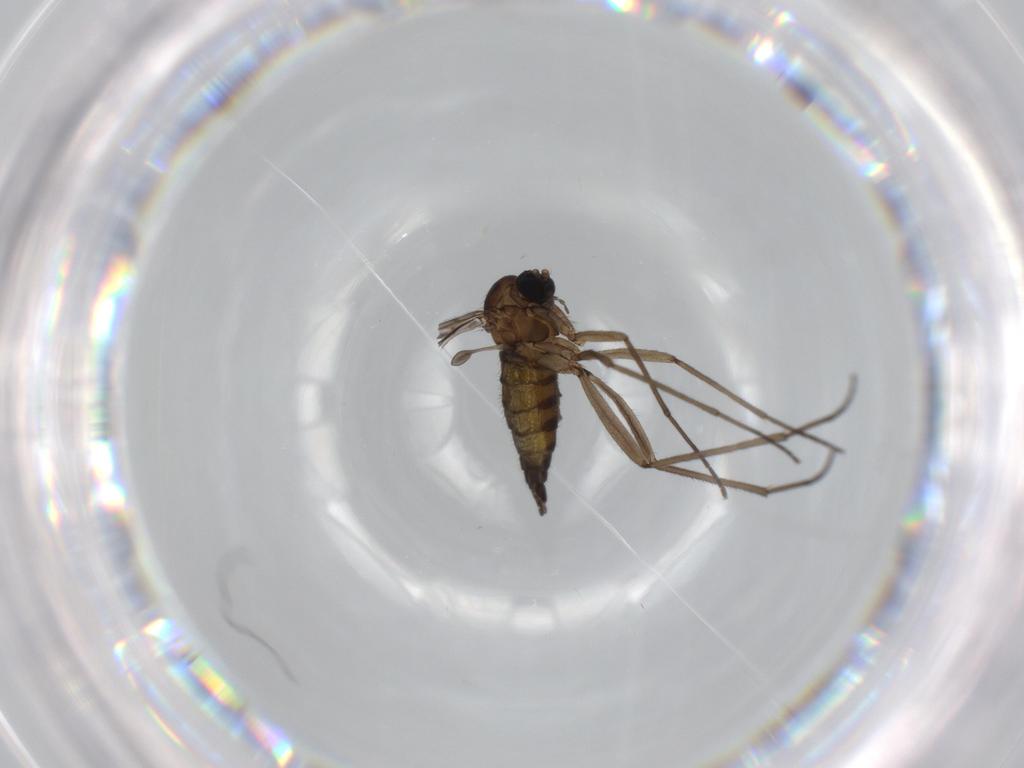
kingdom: Animalia
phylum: Arthropoda
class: Insecta
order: Diptera
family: Sciaridae
